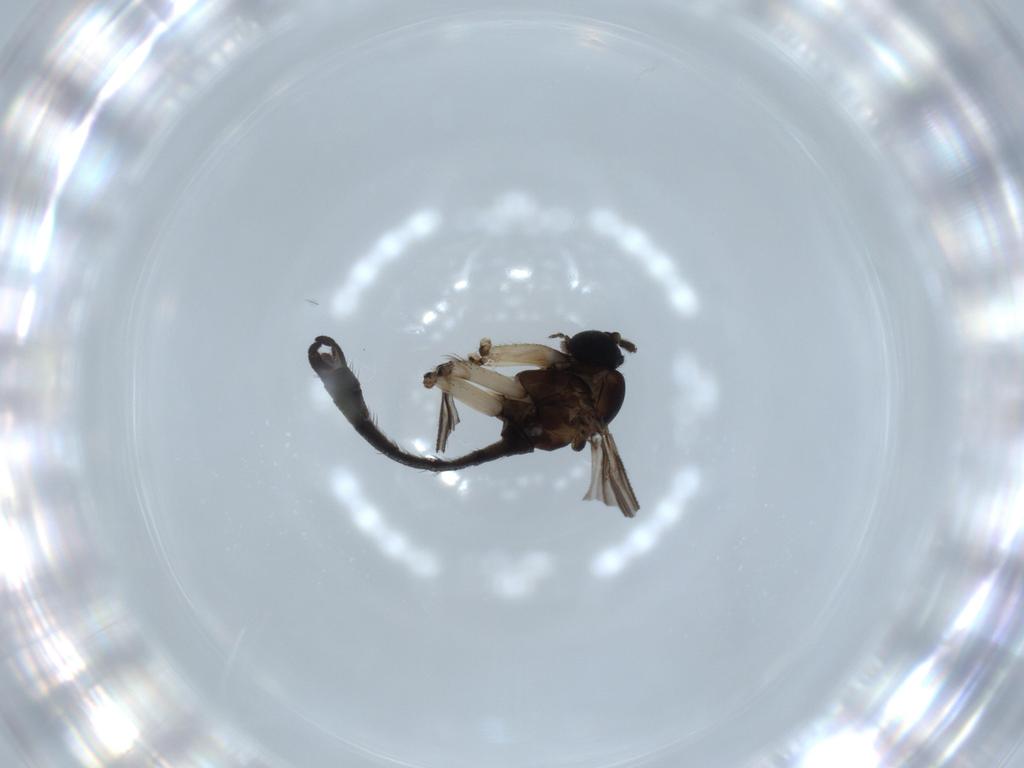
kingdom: Animalia
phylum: Arthropoda
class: Insecta
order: Diptera
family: Sciaridae
